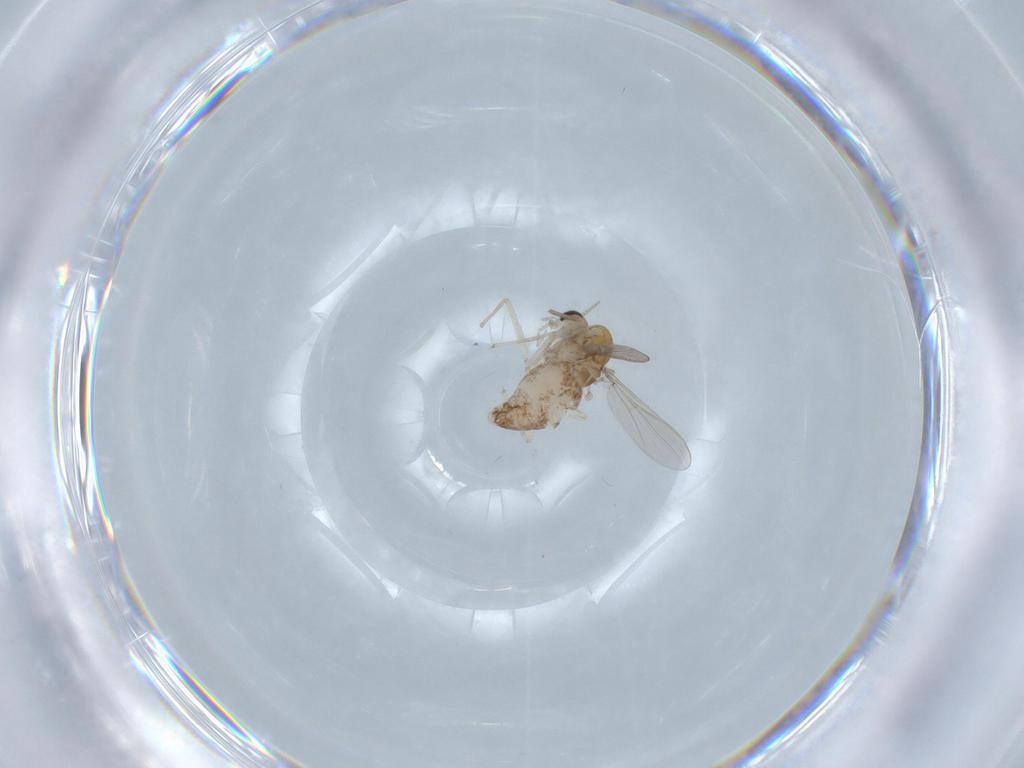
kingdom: Animalia
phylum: Arthropoda
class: Insecta
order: Diptera
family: Chironomidae
